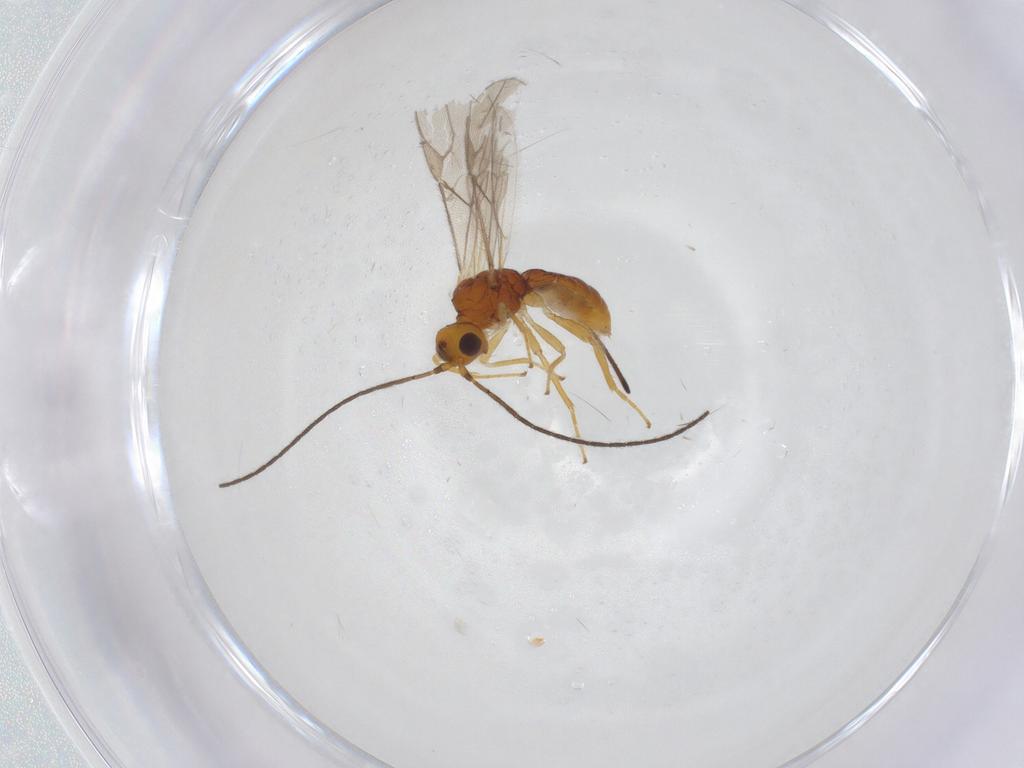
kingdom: Animalia
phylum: Arthropoda
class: Insecta
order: Hymenoptera
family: Braconidae
